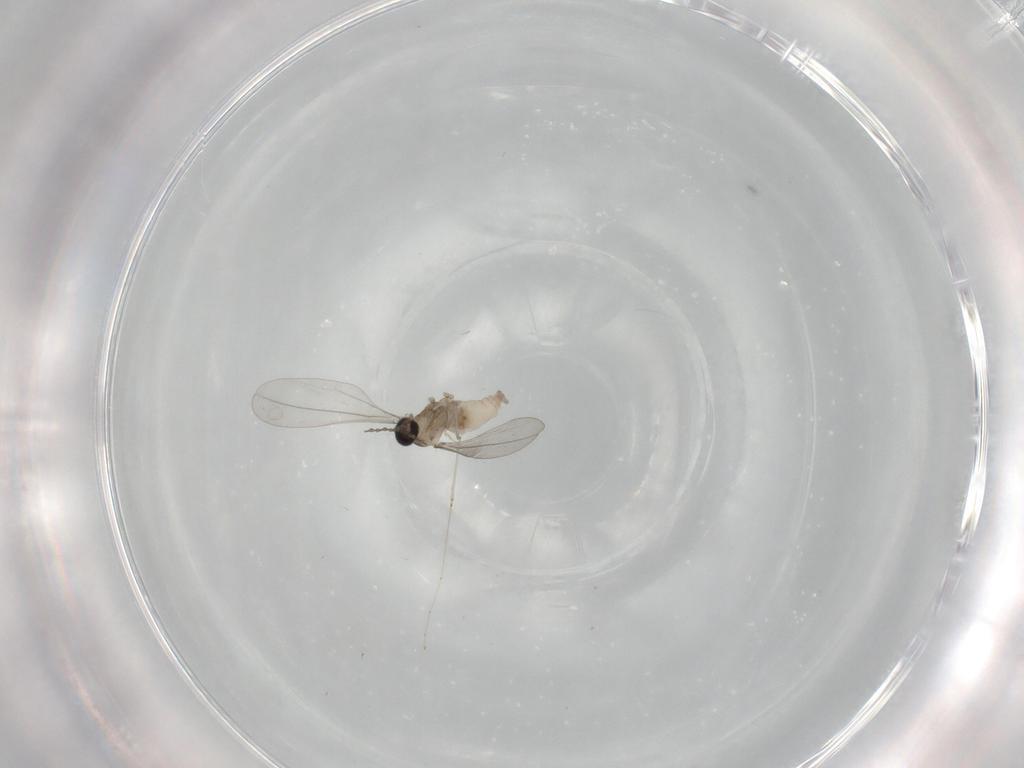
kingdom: Animalia
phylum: Arthropoda
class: Insecta
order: Diptera
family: Cecidomyiidae
